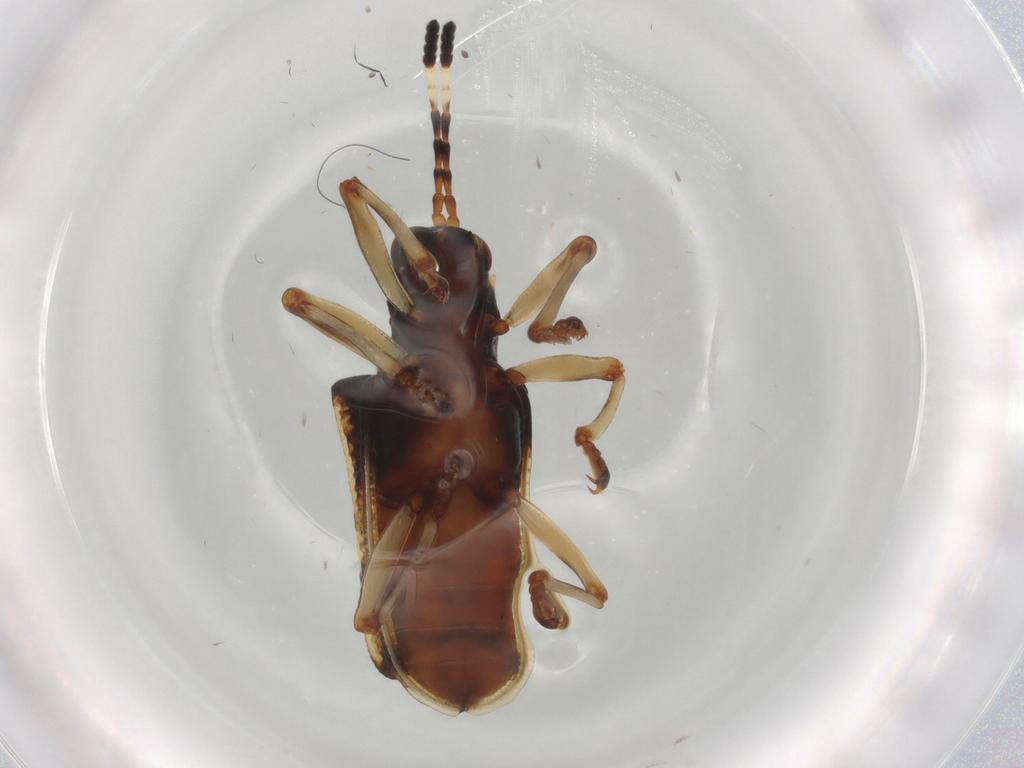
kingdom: Animalia
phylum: Arthropoda
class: Insecta
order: Coleoptera
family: Chrysomelidae
